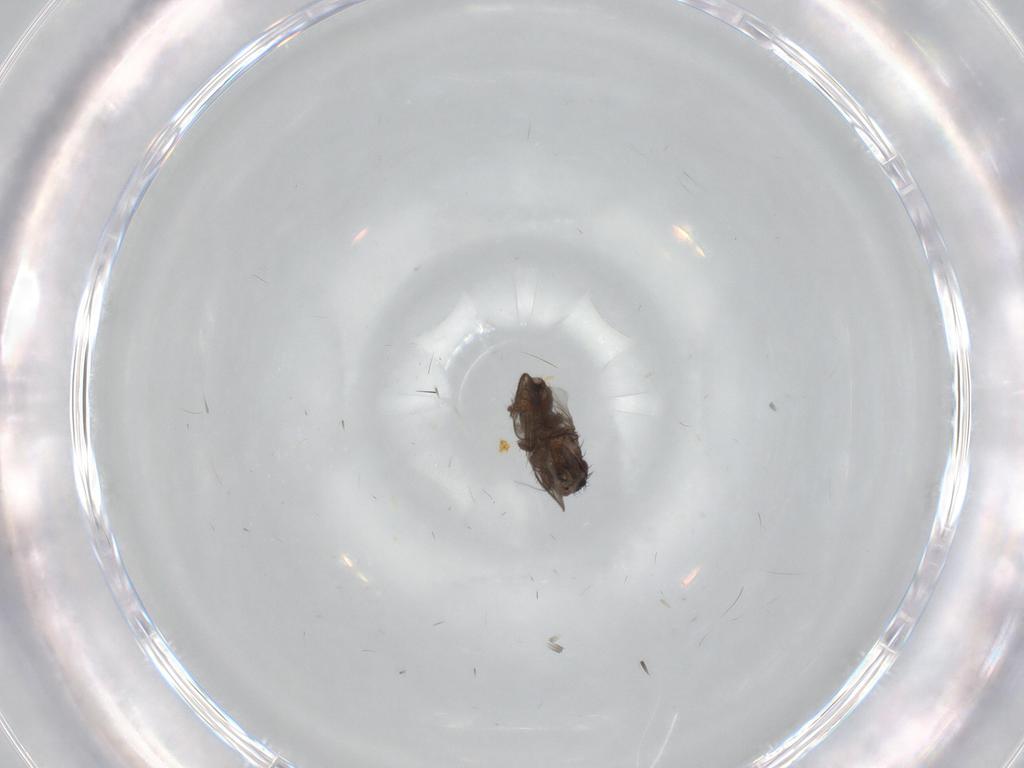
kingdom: Animalia
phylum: Arthropoda
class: Insecta
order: Diptera
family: Sphaeroceridae
